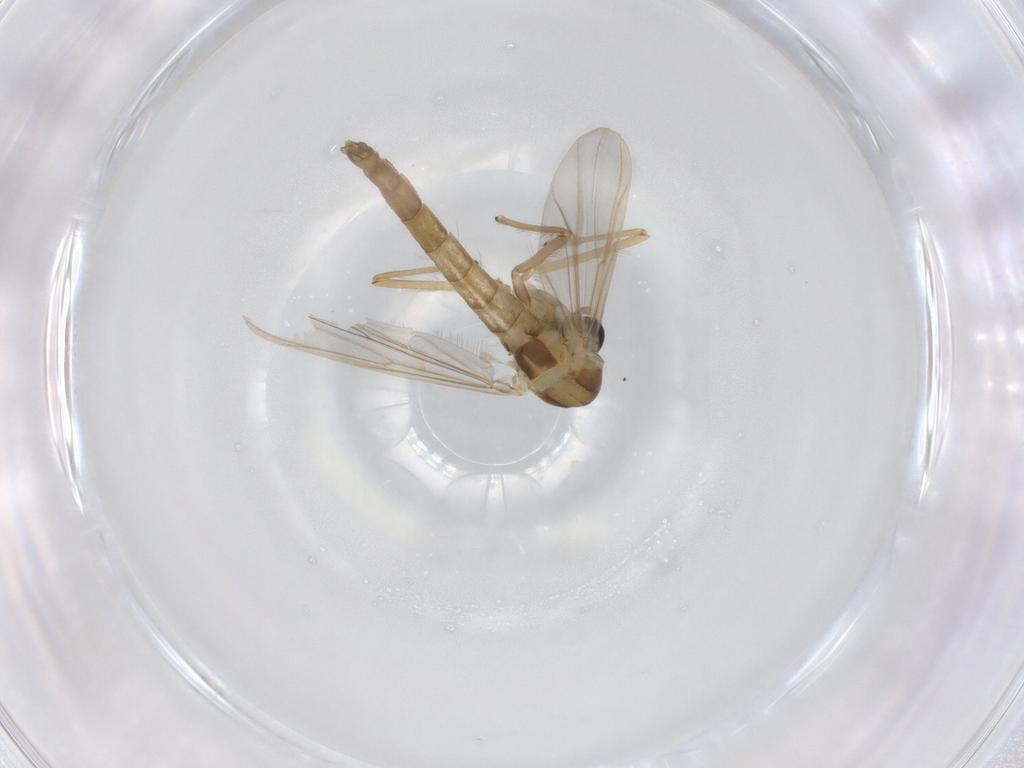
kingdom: Animalia
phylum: Arthropoda
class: Insecta
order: Diptera
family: Chironomidae
